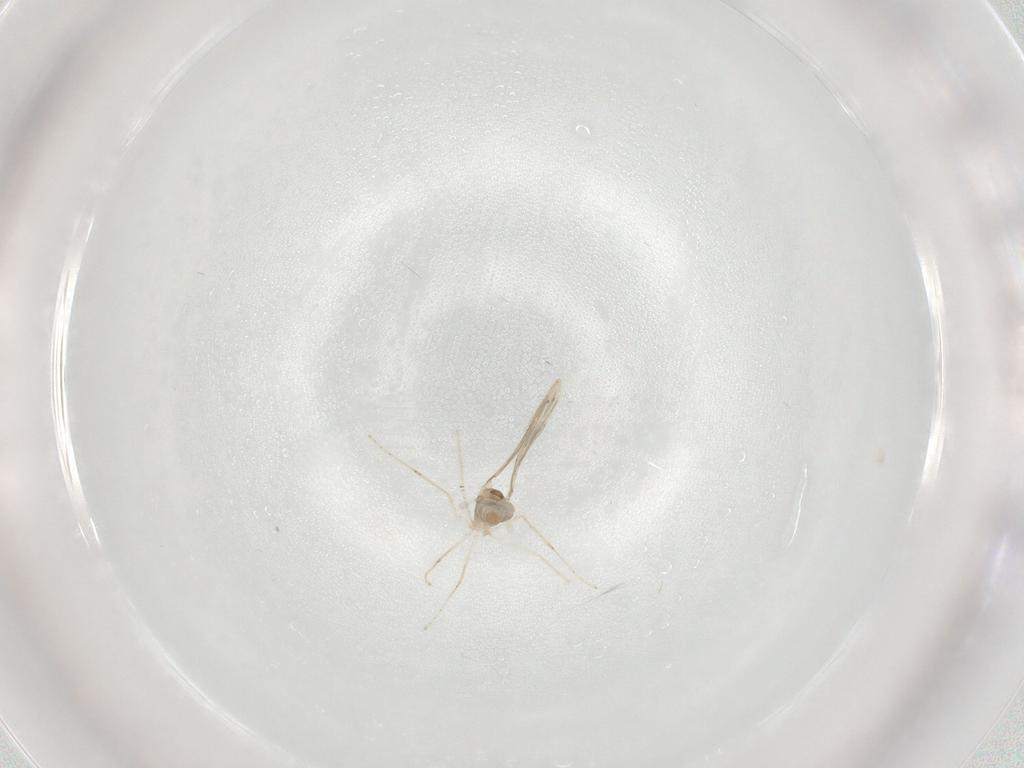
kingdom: Animalia
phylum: Arthropoda
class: Insecta
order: Diptera
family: Cecidomyiidae
